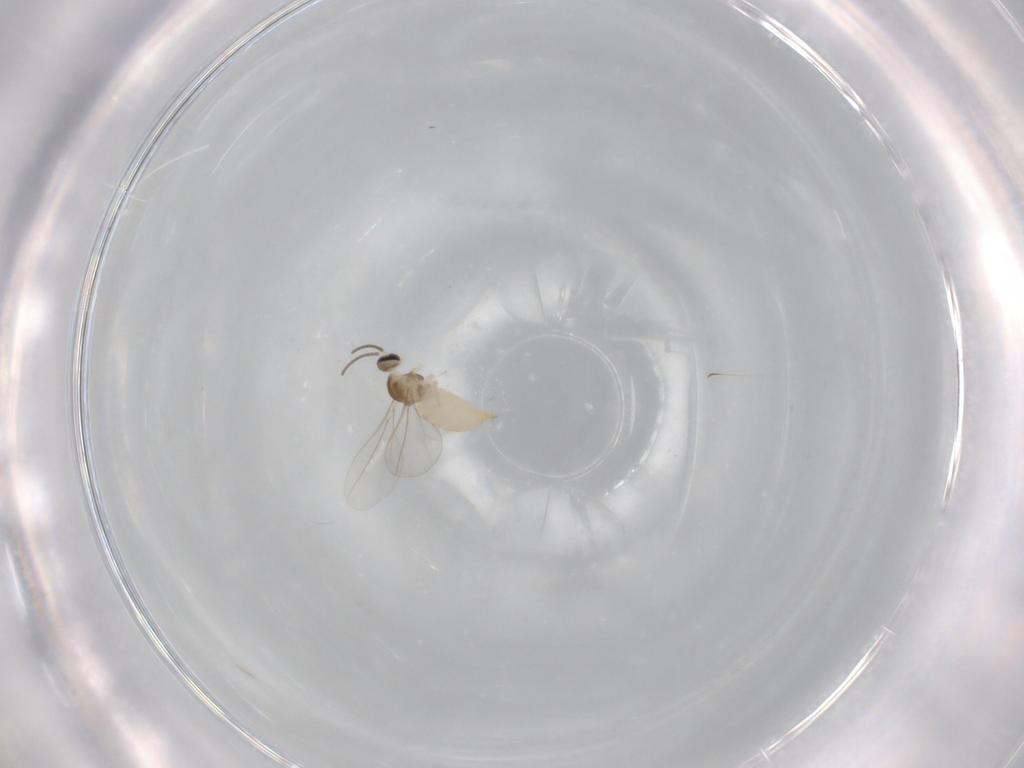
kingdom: Animalia
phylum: Arthropoda
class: Insecta
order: Diptera
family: Cecidomyiidae
